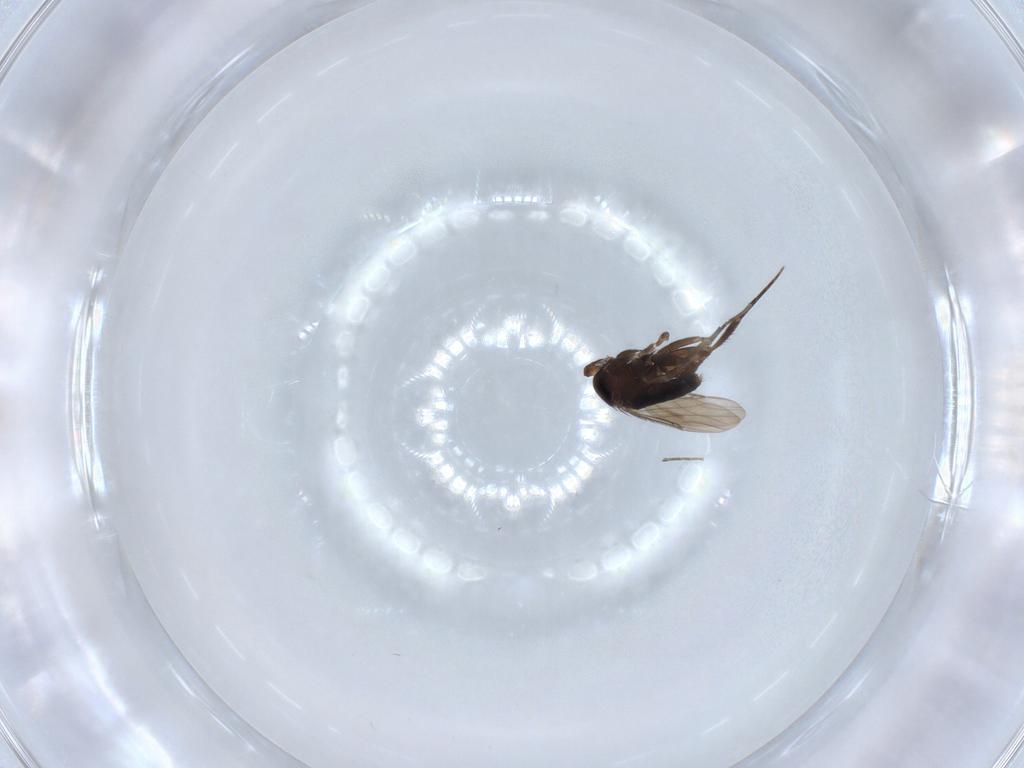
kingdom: Animalia
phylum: Arthropoda
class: Insecta
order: Diptera
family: Phoridae
